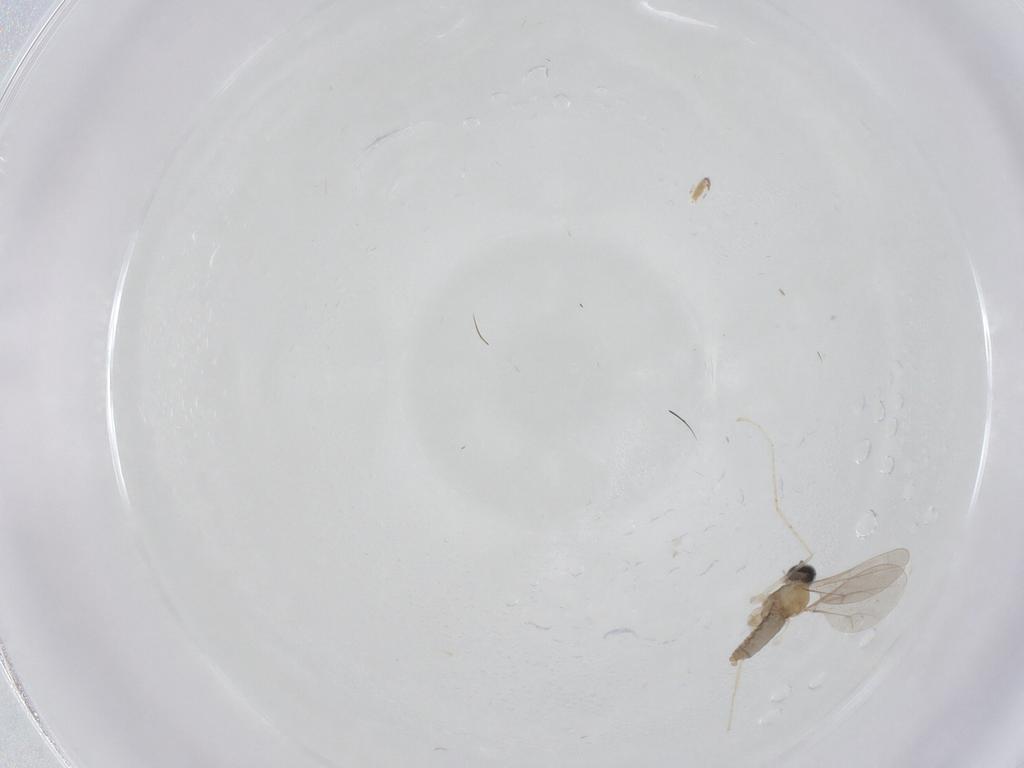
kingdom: Animalia
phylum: Arthropoda
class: Insecta
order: Diptera
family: Cecidomyiidae
